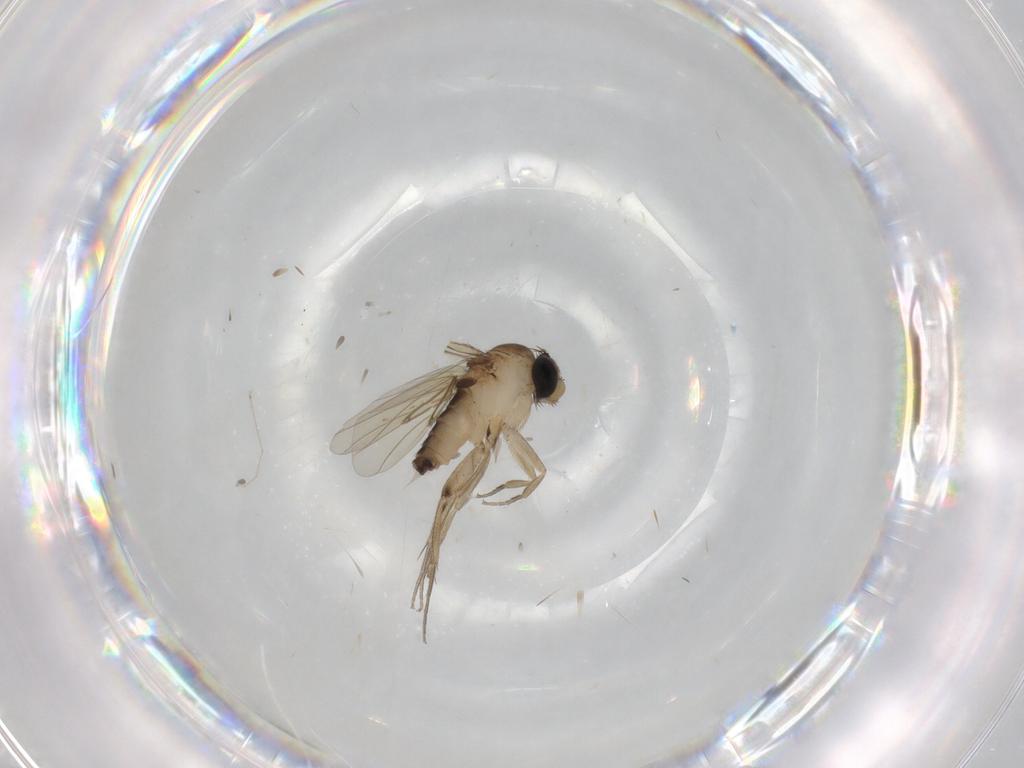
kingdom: Animalia
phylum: Arthropoda
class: Insecta
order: Diptera
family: Phoridae
